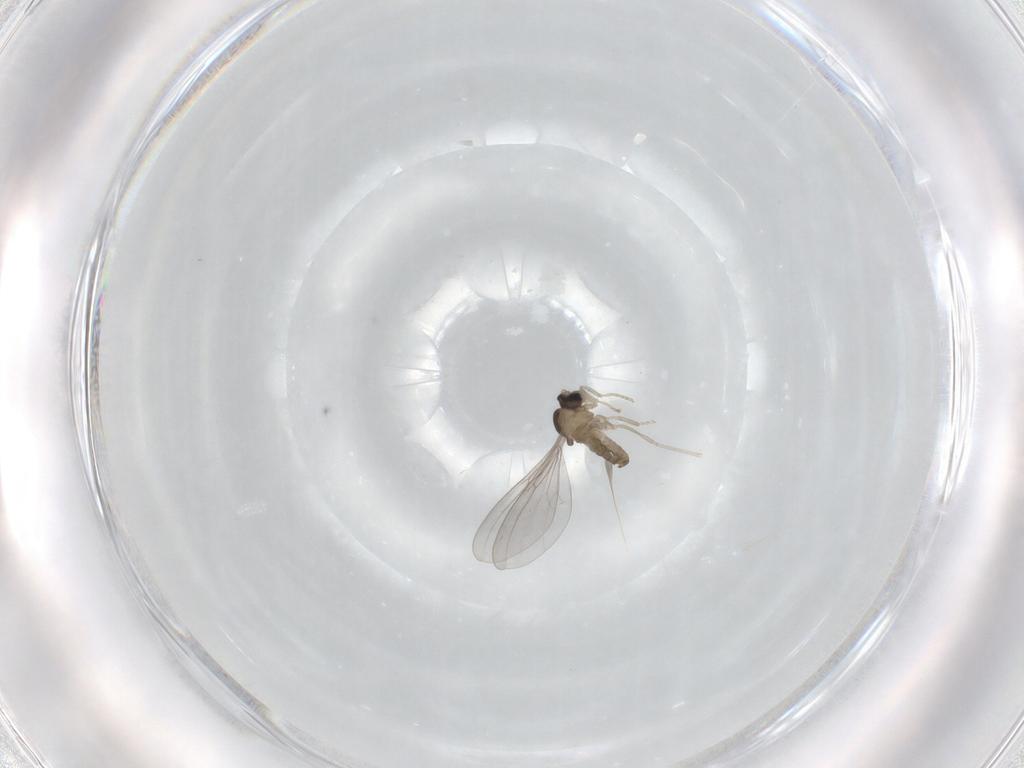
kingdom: Animalia
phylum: Arthropoda
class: Insecta
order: Diptera
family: Cecidomyiidae
